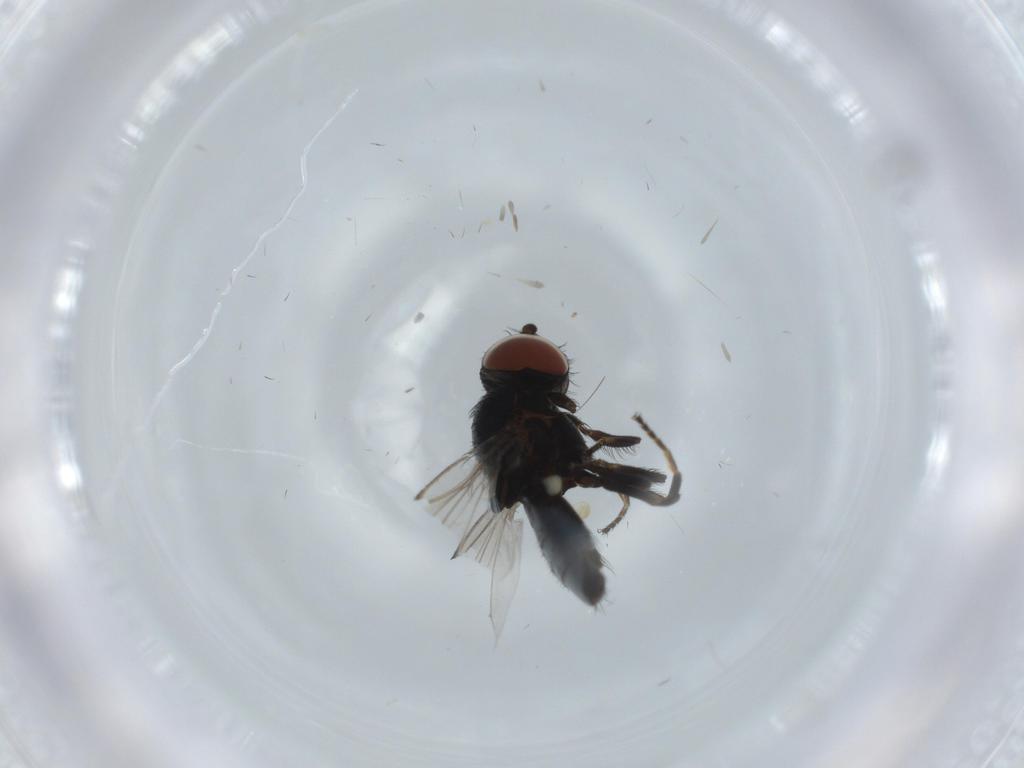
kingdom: Animalia
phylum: Arthropoda
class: Insecta
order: Diptera
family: Milichiidae
